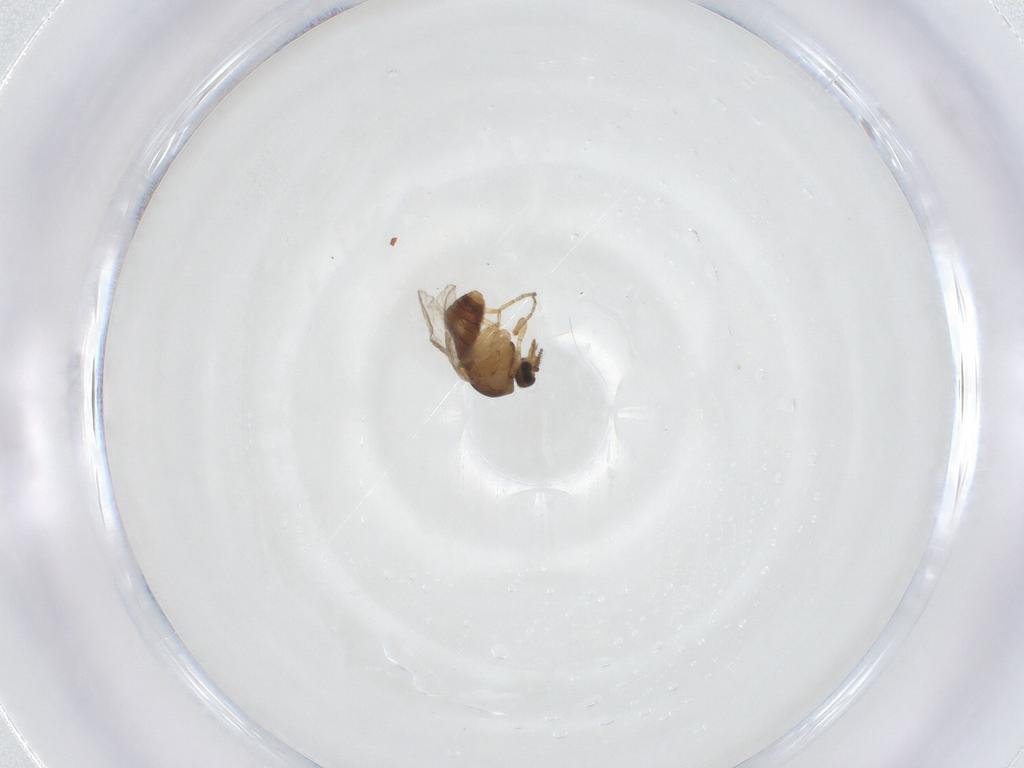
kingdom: Animalia
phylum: Arthropoda
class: Insecta
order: Diptera
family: Ceratopogonidae
